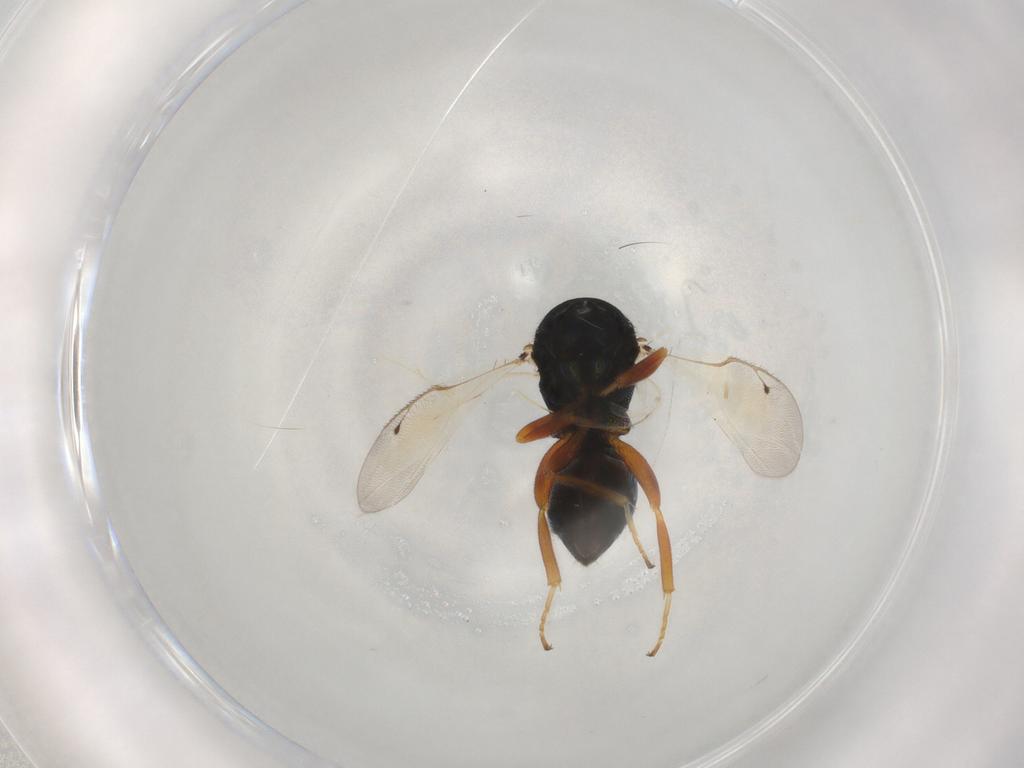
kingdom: Animalia
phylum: Arthropoda
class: Insecta
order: Hymenoptera
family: Pteromalidae
